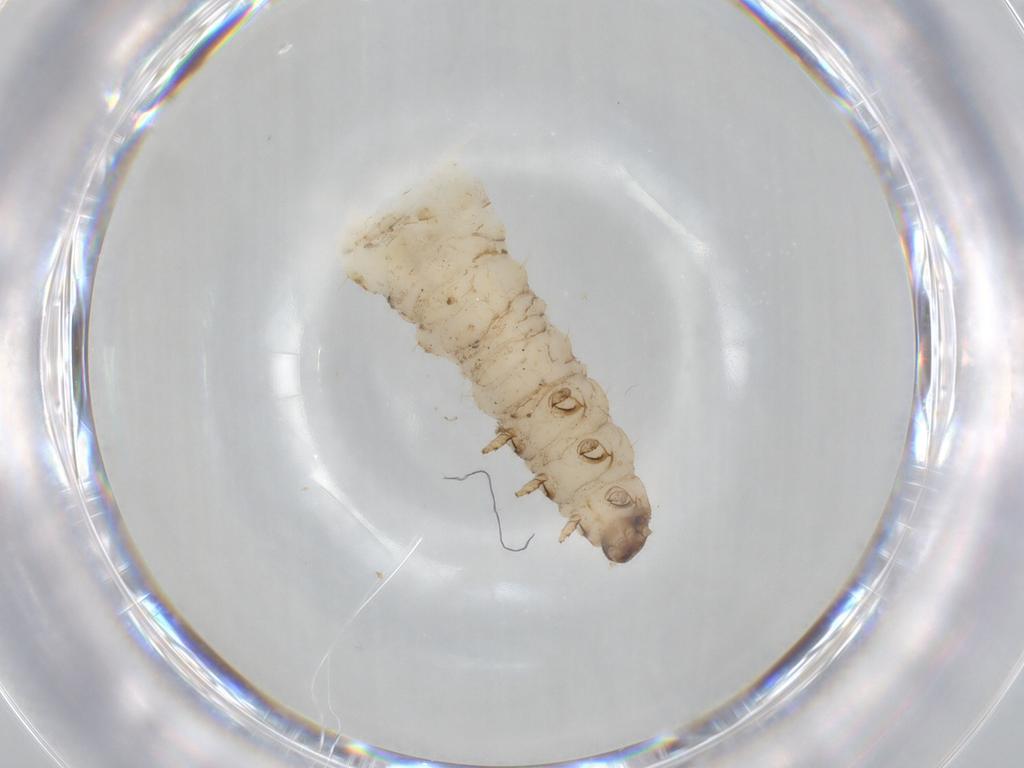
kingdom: Animalia
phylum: Arthropoda
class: Insecta
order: Coleoptera
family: Chrysomelidae
